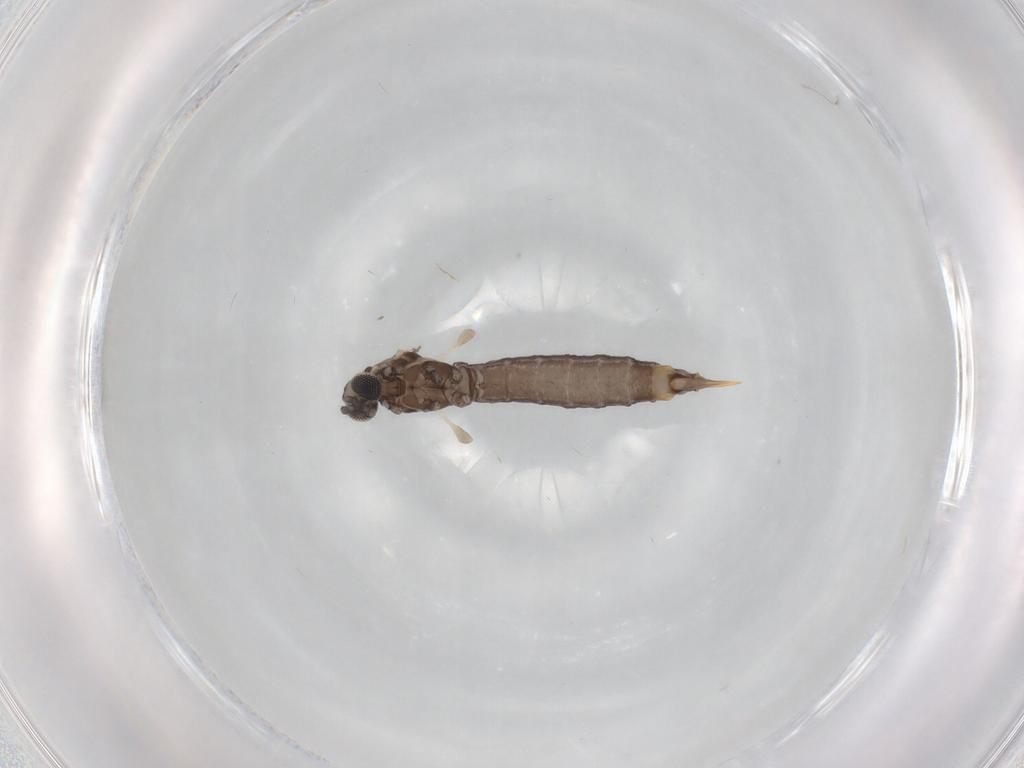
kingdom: Animalia
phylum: Arthropoda
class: Insecta
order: Diptera
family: Limoniidae
